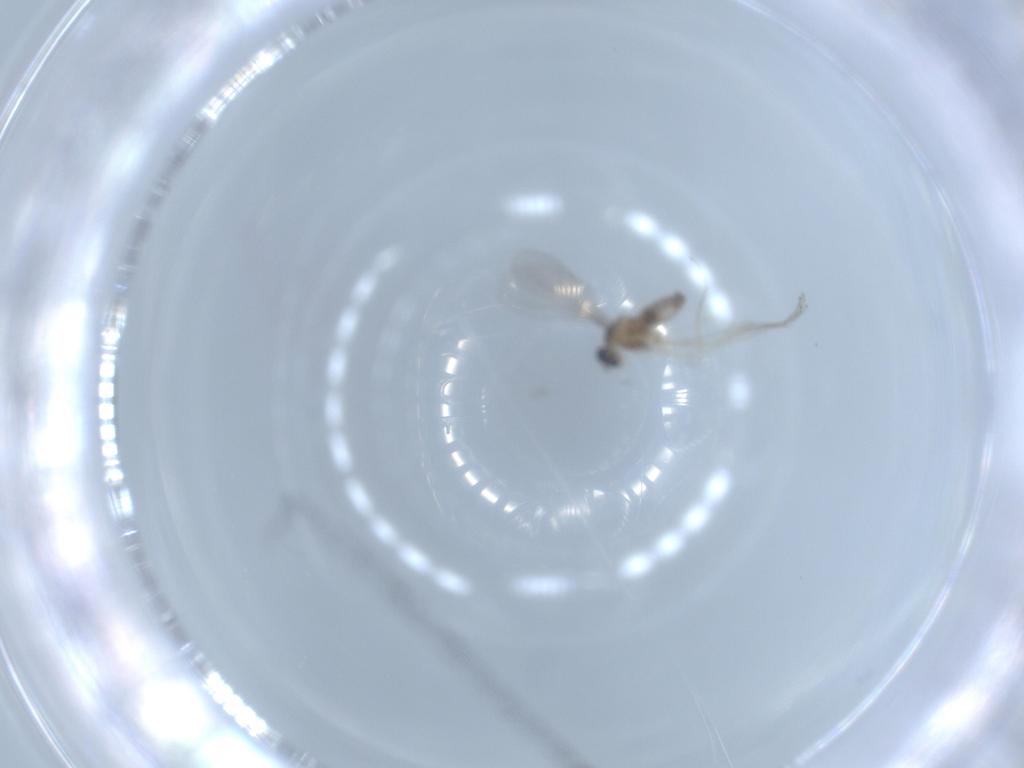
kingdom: Animalia
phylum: Arthropoda
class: Insecta
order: Diptera
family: Cecidomyiidae
